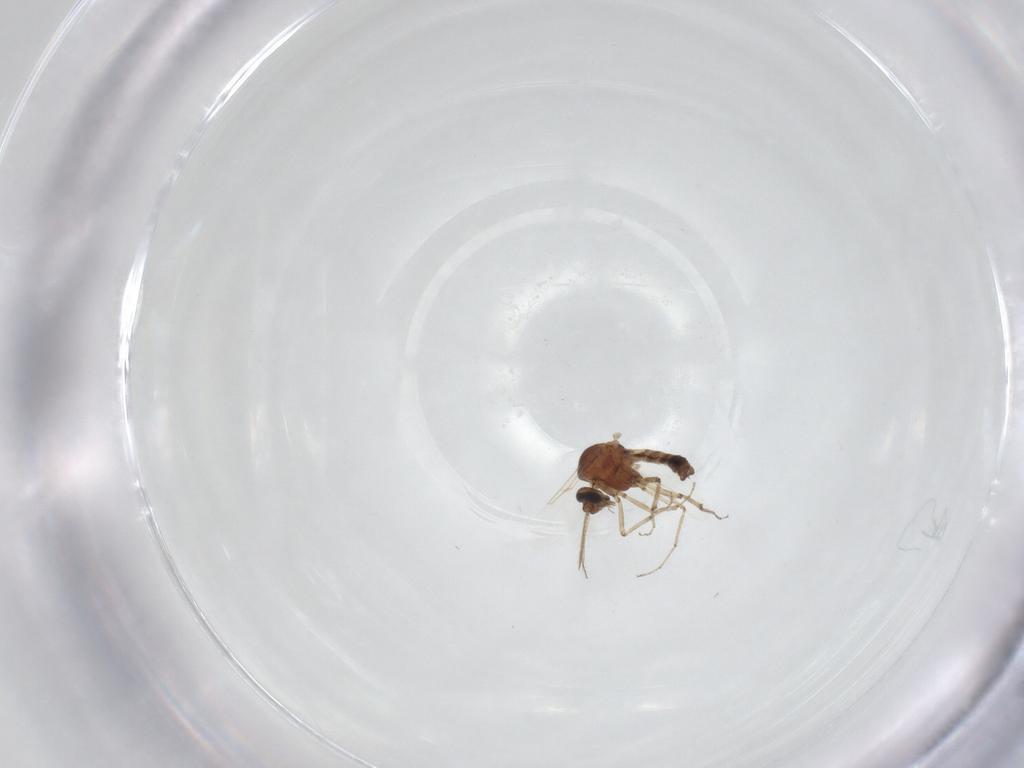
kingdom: Animalia
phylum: Arthropoda
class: Insecta
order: Diptera
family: Ceratopogonidae
